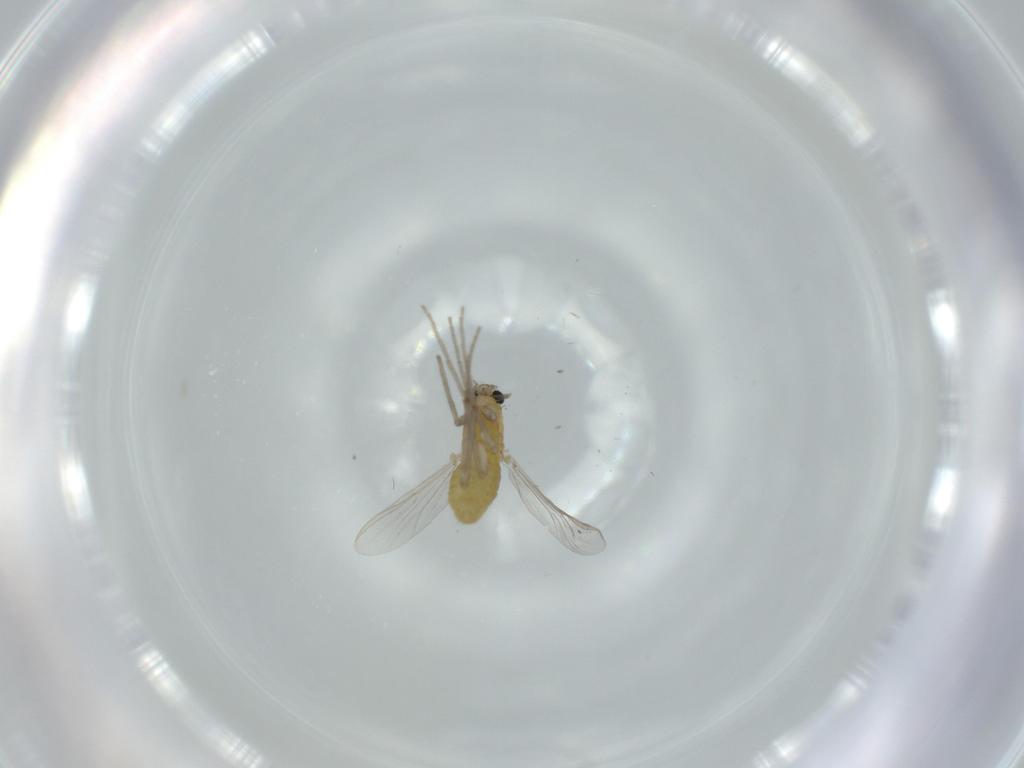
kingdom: Animalia
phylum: Arthropoda
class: Insecta
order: Diptera
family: Chironomidae
